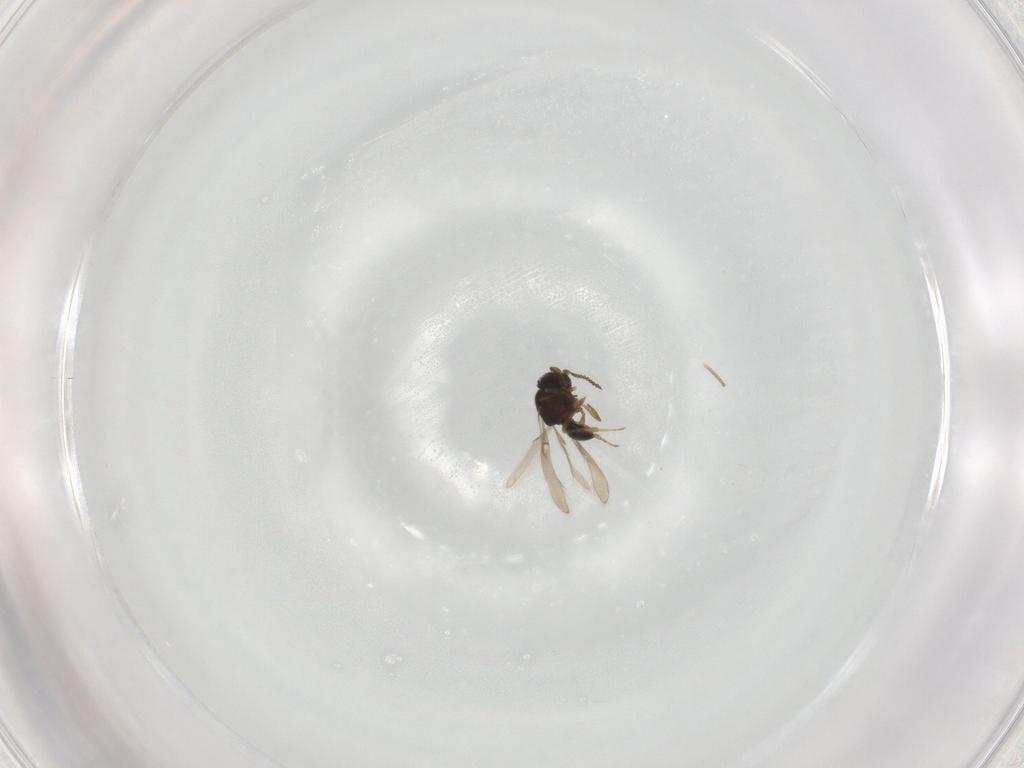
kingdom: Animalia
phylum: Arthropoda
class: Insecta
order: Hymenoptera
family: Scelionidae
